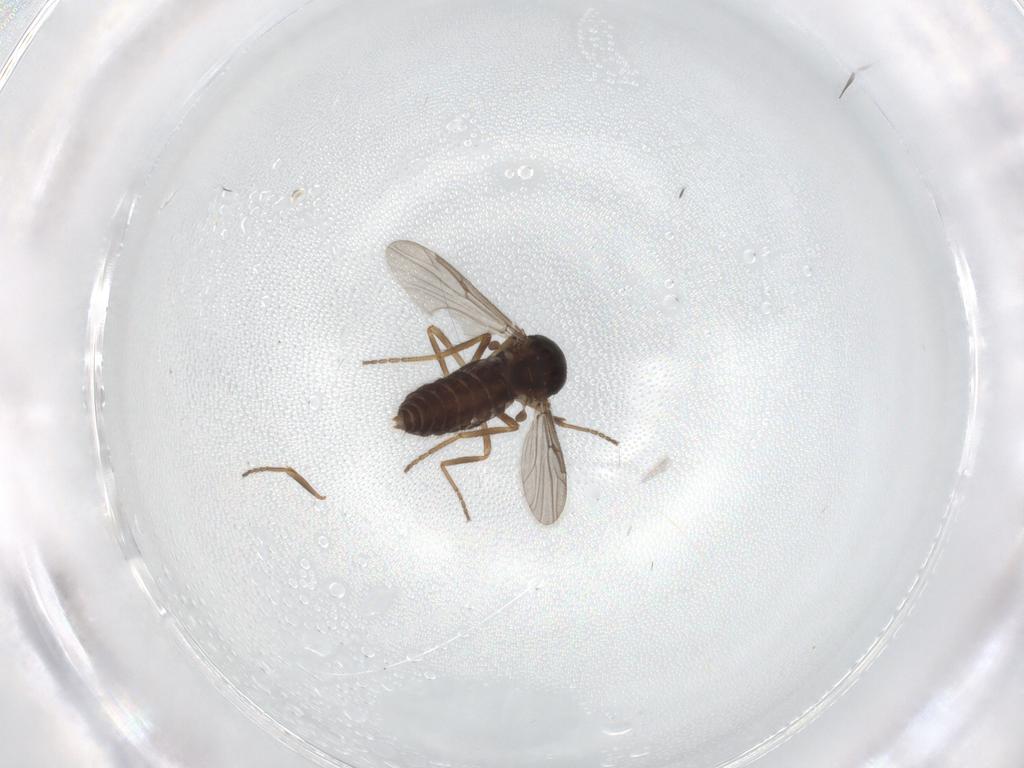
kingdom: Animalia
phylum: Arthropoda
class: Insecta
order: Diptera
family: Ceratopogonidae
